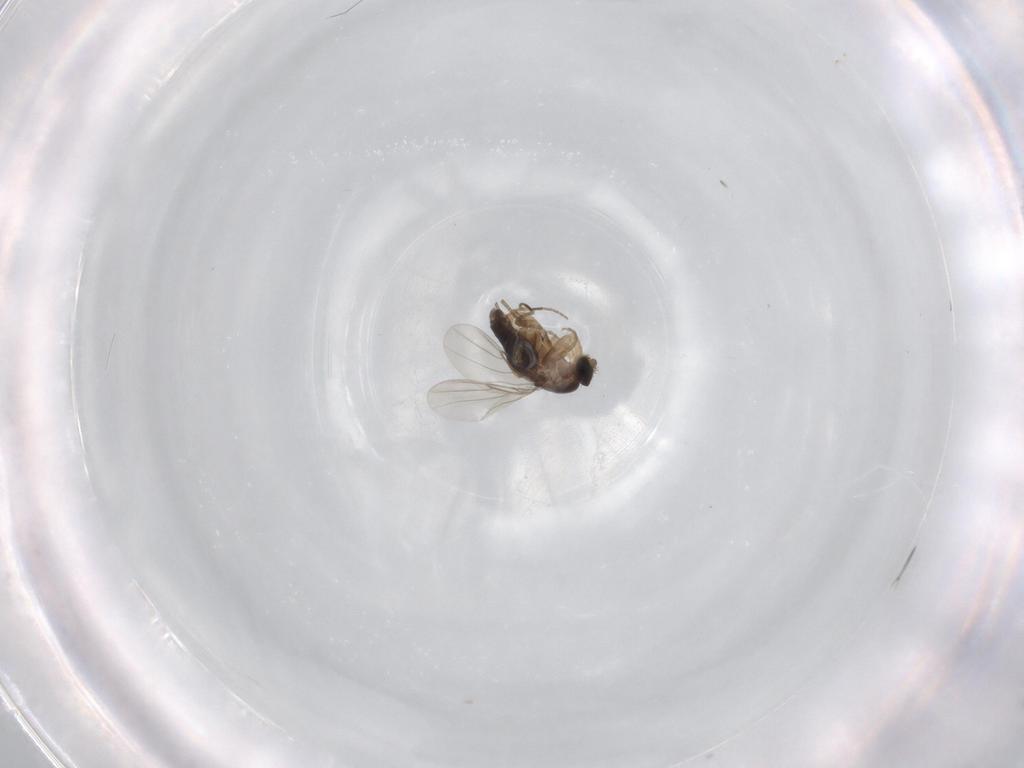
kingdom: Animalia
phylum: Arthropoda
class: Insecta
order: Diptera
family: Phoridae
